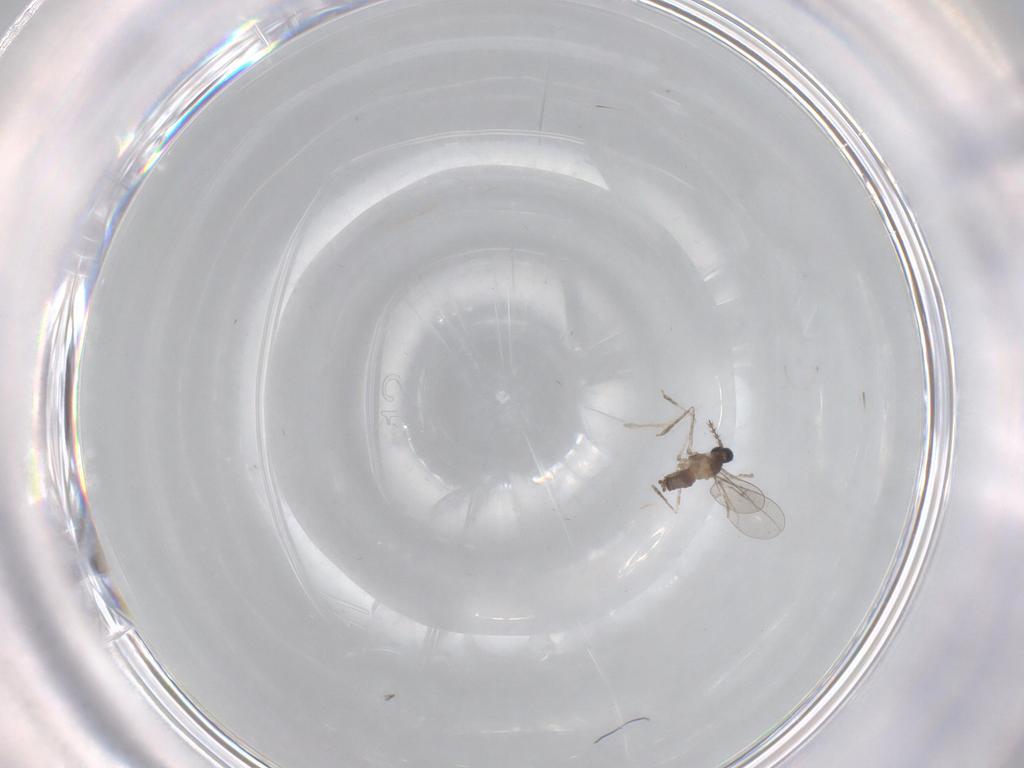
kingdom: Animalia
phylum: Arthropoda
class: Insecta
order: Diptera
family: Cecidomyiidae
